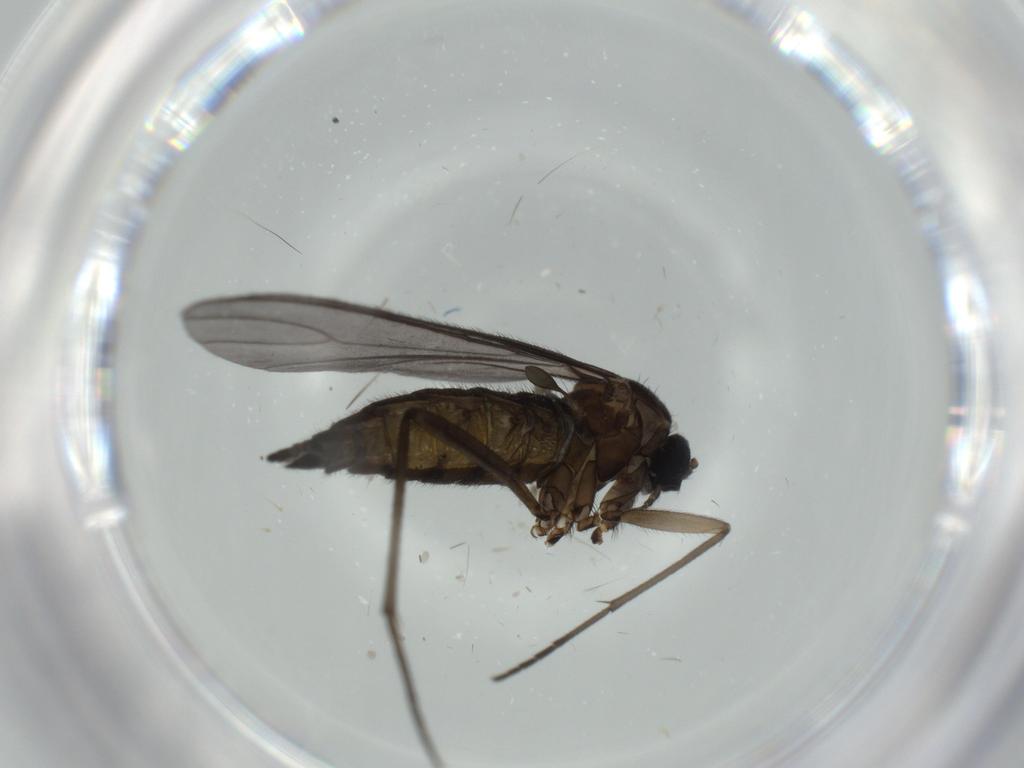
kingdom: Animalia
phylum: Arthropoda
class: Insecta
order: Diptera
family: Sciaridae
